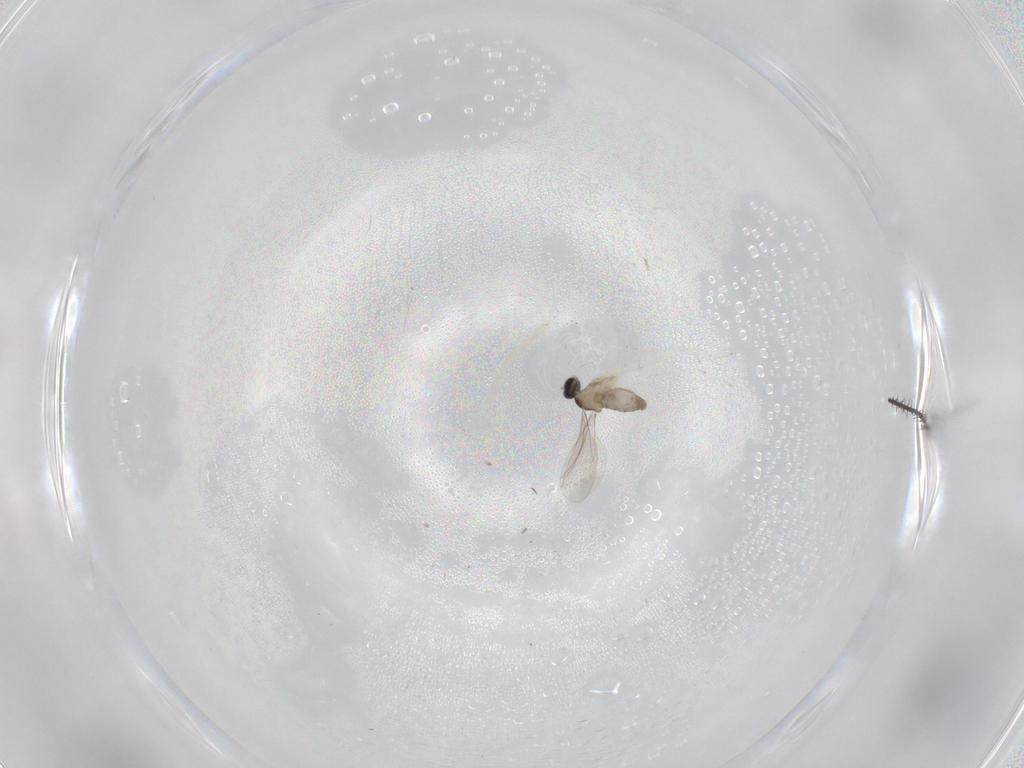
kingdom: Animalia
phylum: Arthropoda
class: Insecta
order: Diptera
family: Cecidomyiidae
